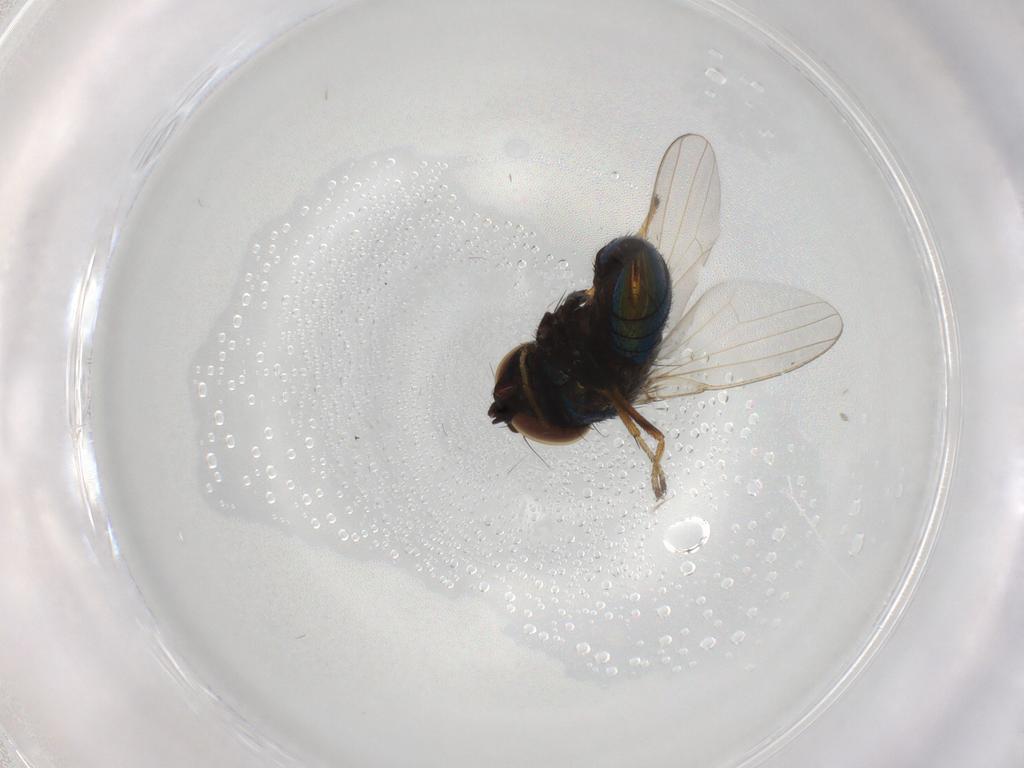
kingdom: Animalia
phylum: Arthropoda
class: Insecta
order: Diptera
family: Milichiidae
